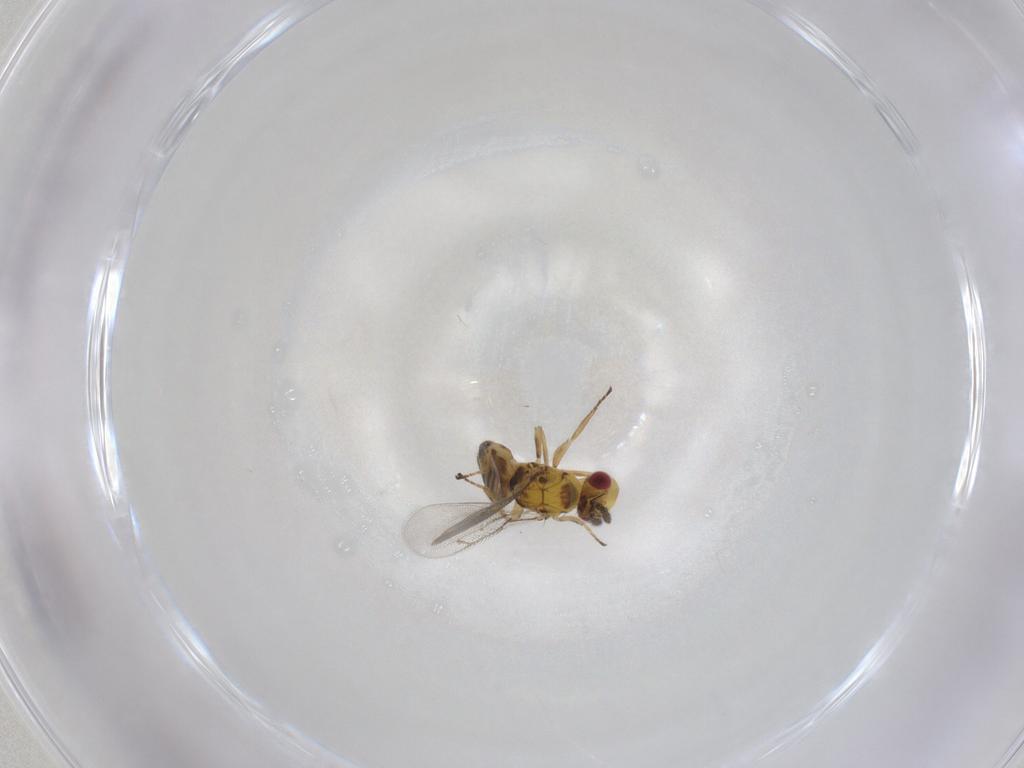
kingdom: Animalia
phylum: Arthropoda
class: Insecta
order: Hymenoptera
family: Eulophidae
